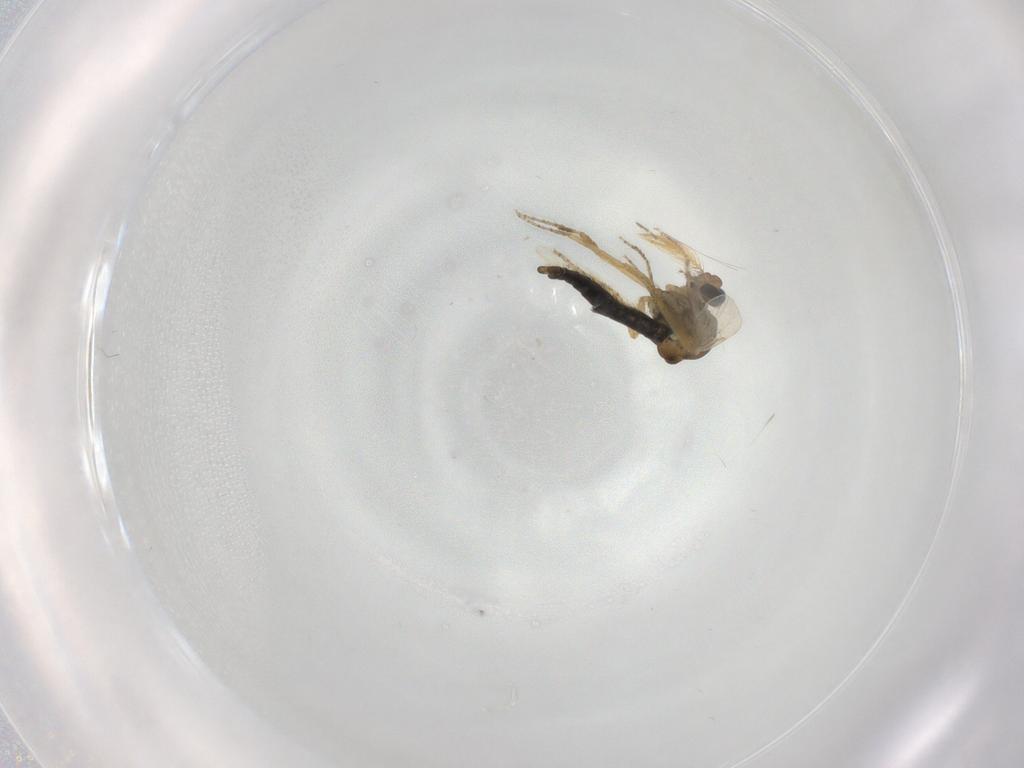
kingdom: Animalia
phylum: Arthropoda
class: Insecta
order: Diptera
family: Ceratopogonidae
